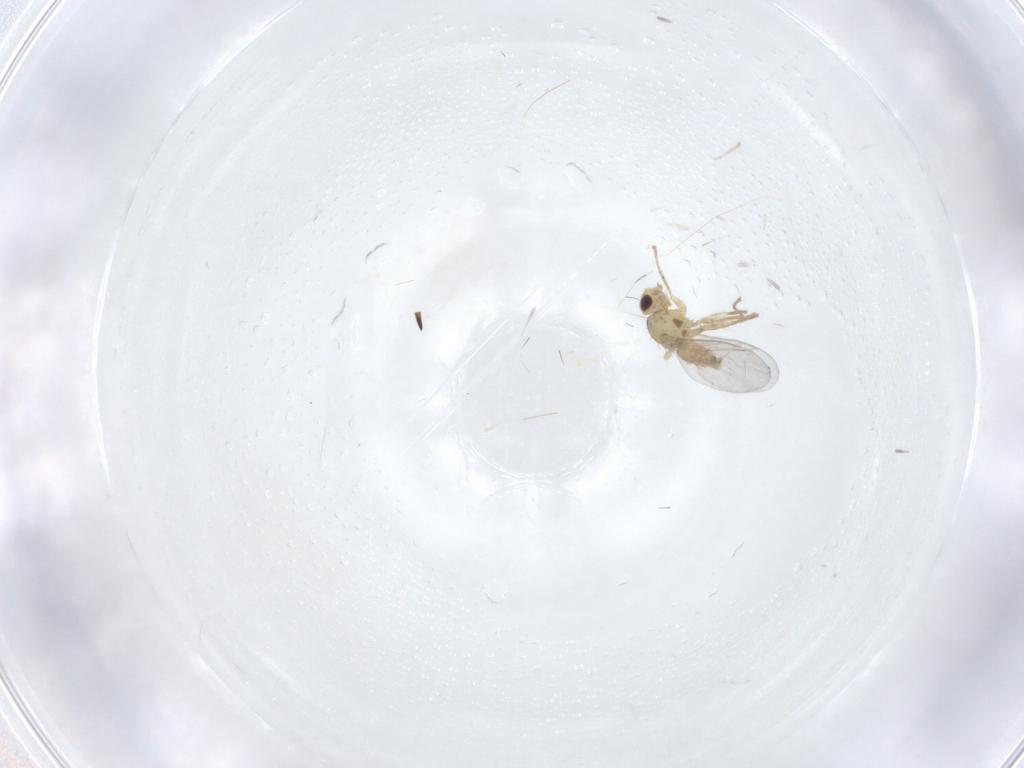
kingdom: Animalia
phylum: Arthropoda
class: Insecta
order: Diptera
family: Agromyzidae
